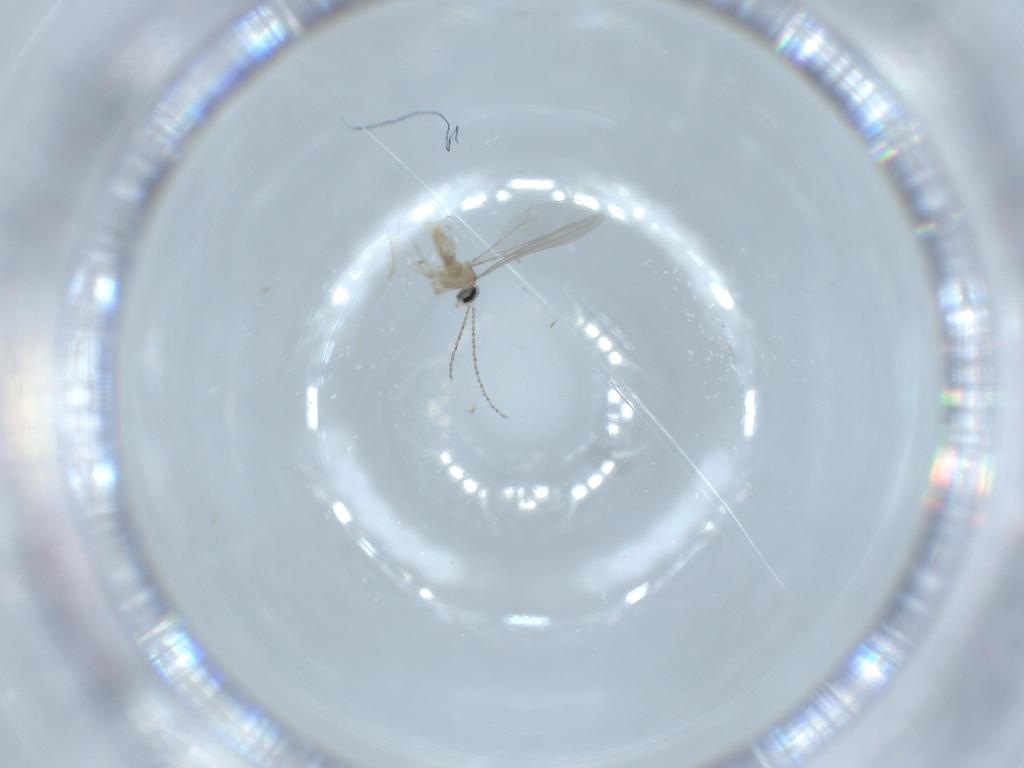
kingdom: Animalia
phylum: Arthropoda
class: Insecta
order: Diptera
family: Cecidomyiidae
